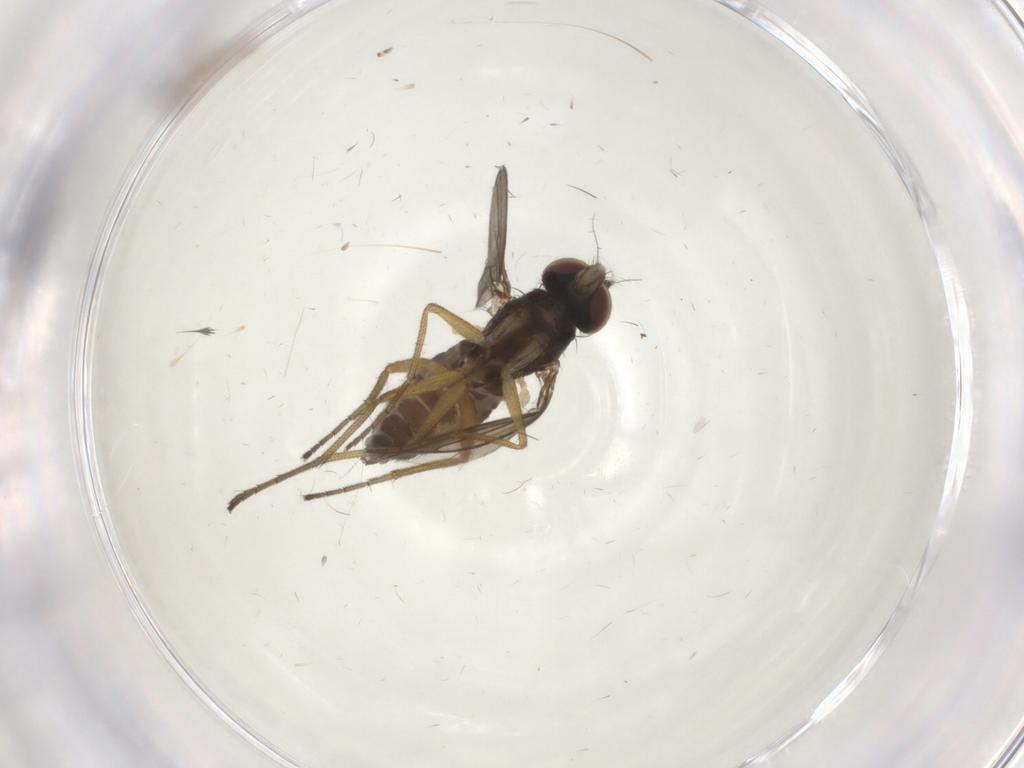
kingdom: Animalia
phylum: Arthropoda
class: Insecta
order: Diptera
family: Dolichopodidae
